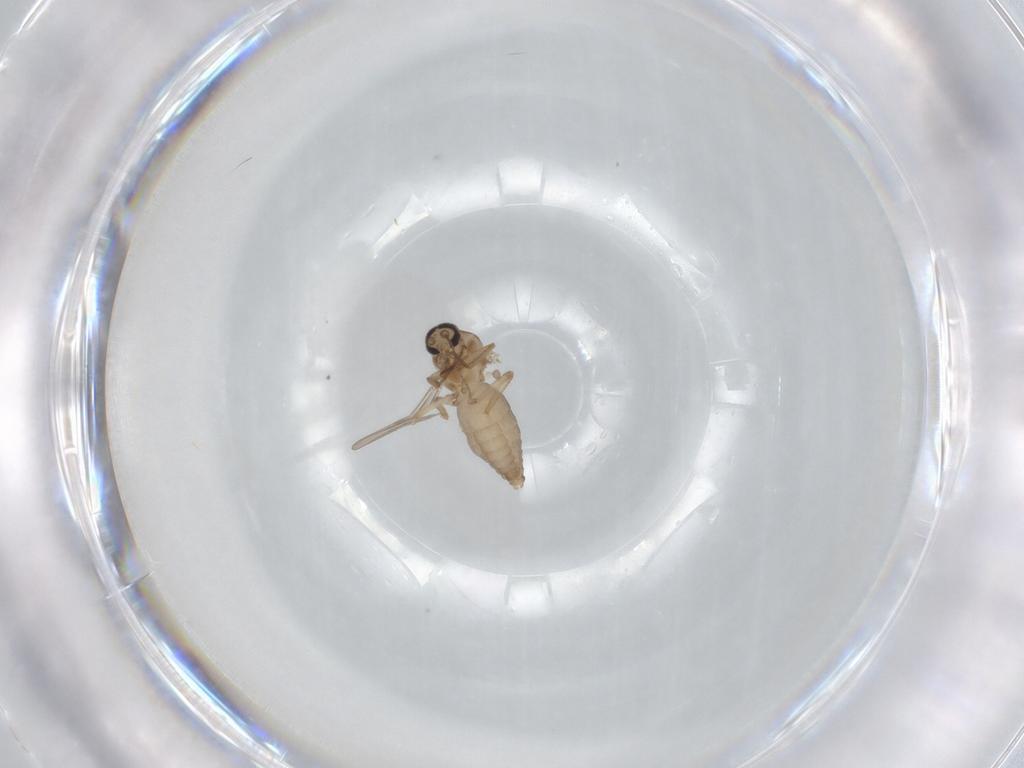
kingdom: Animalia
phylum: Arthropoda
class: Insecta
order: Diptera
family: Ceratopogonidae
